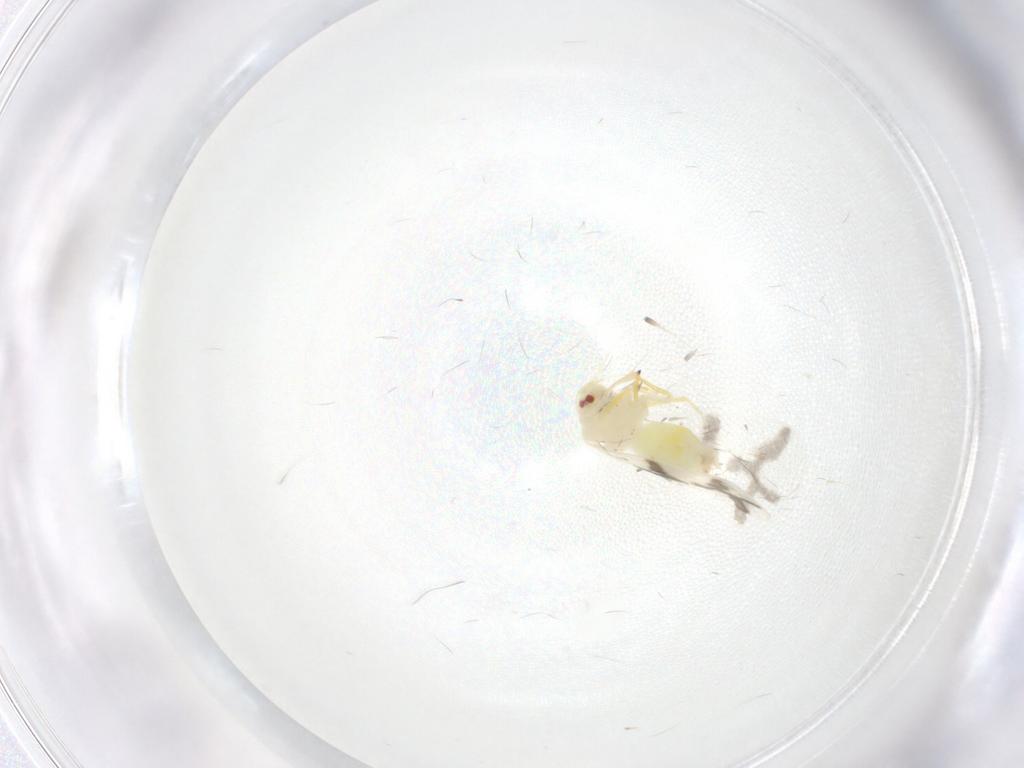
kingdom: Animalia
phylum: Arthropoda
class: Insecta
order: Hemiptera
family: Aleyrodidae
